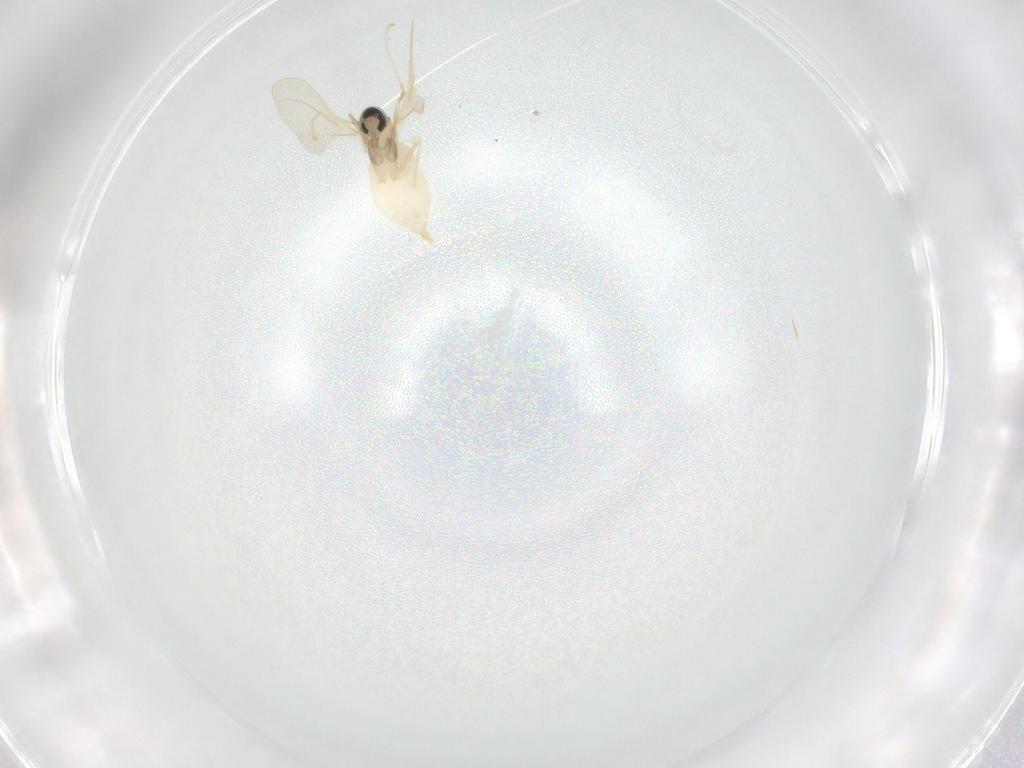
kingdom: Animalia
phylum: Arthropoda
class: Insecta
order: Diptera
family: Cecidomyiidae
